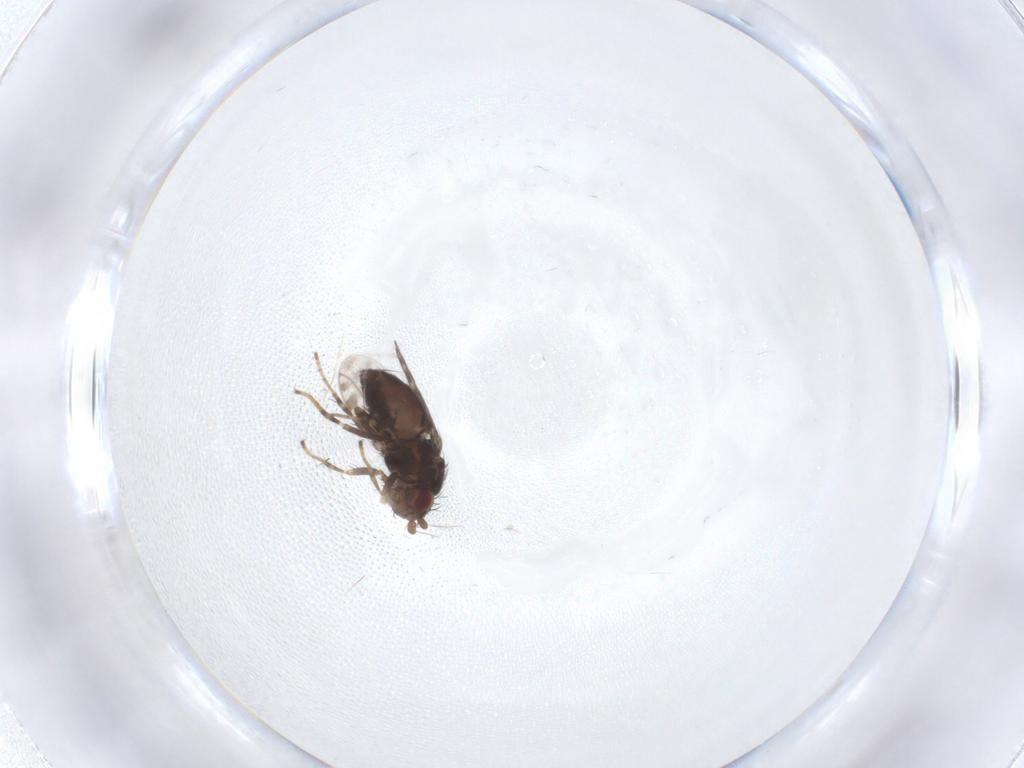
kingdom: Animalia
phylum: Arthropoda
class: Insecta
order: Diptera
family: Sphaeroceridae
